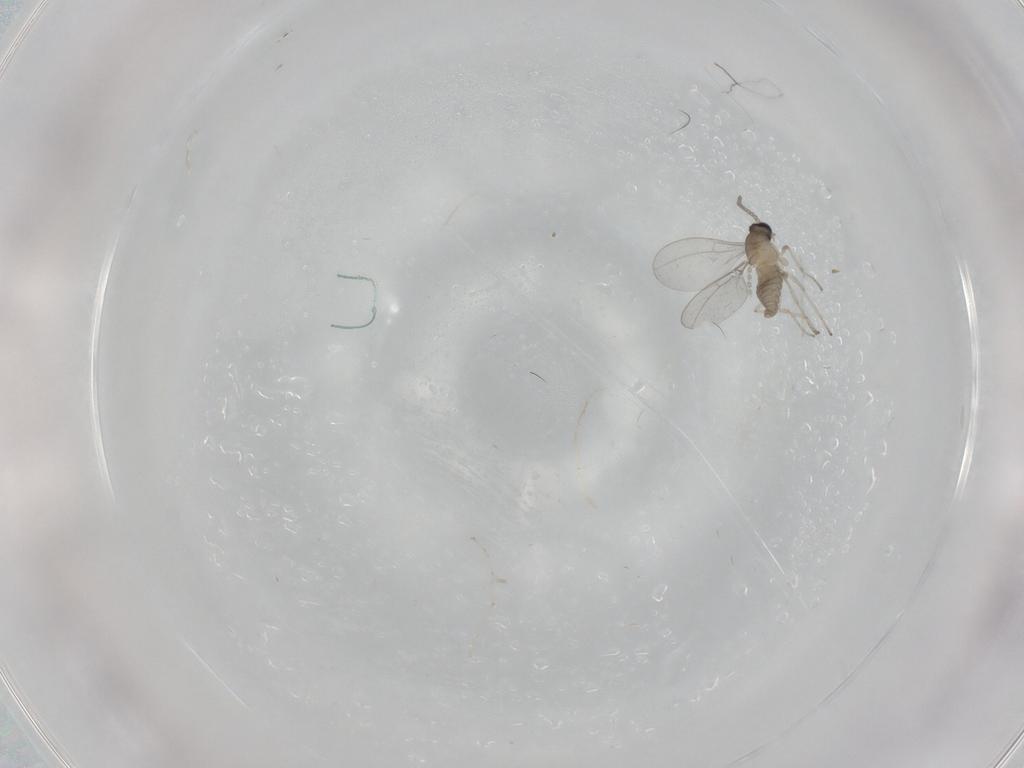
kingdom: Animalia
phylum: Arthropoda
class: Insecta
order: Diptera
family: Cecidomyiidae
